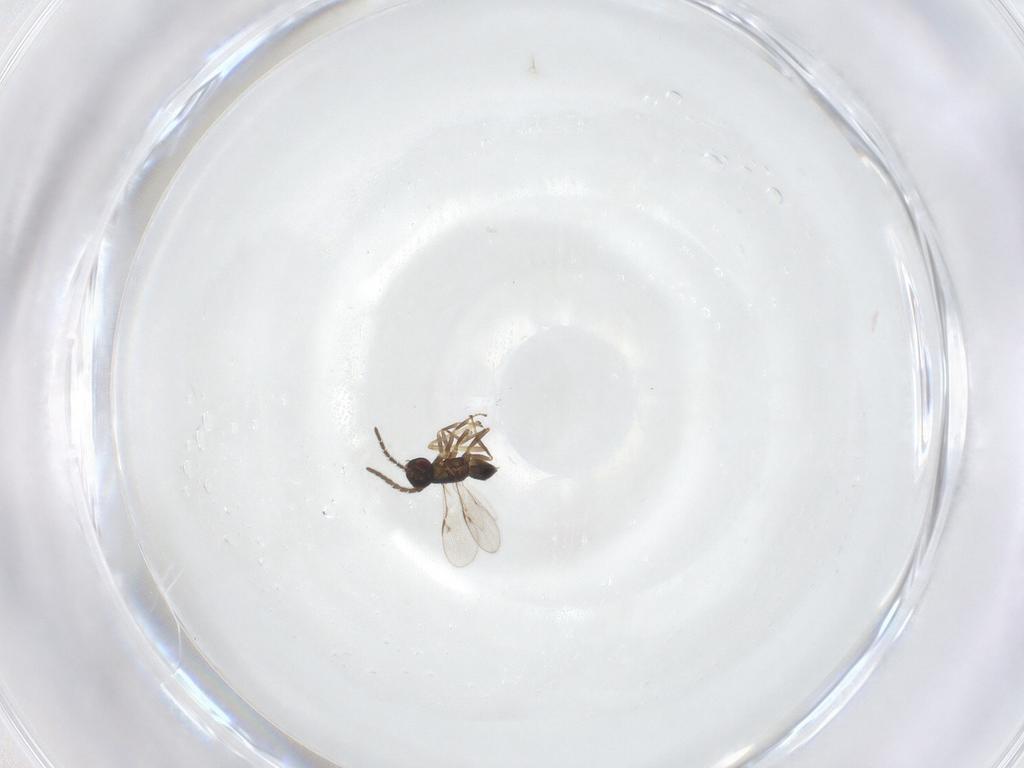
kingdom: Animalia
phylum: Arthropoda
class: Insecta
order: Hymenoptera
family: Encyrtidae
